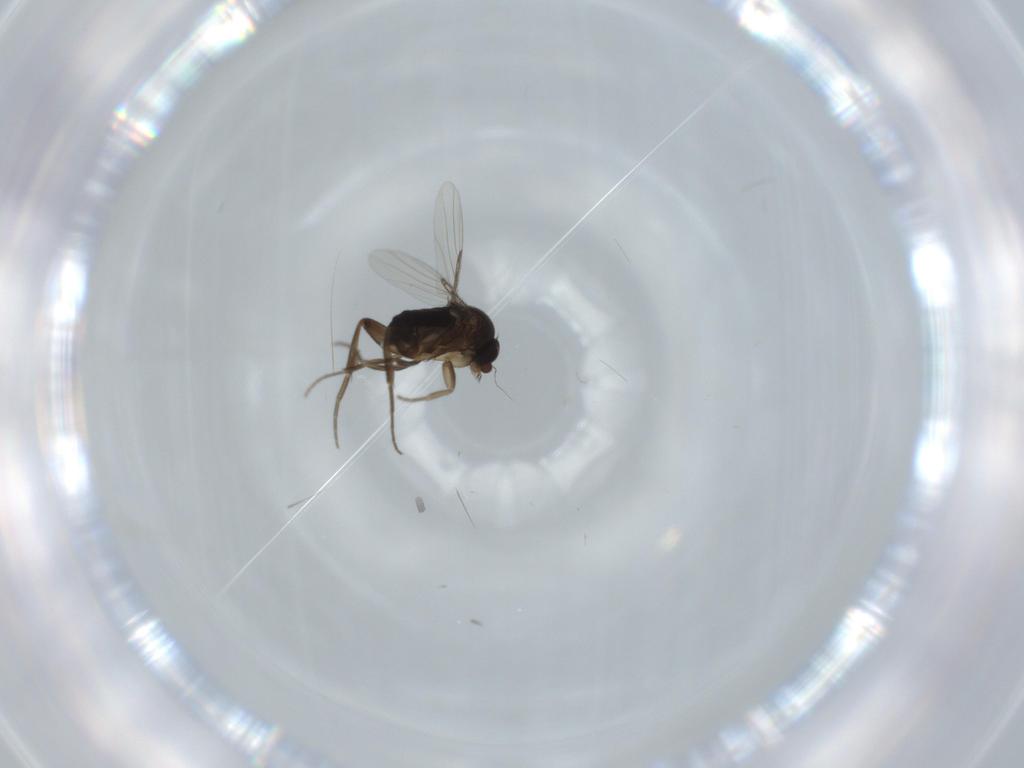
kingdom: Animalia
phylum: Arthropoda
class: Insecta
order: Diptera
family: Phoridae
